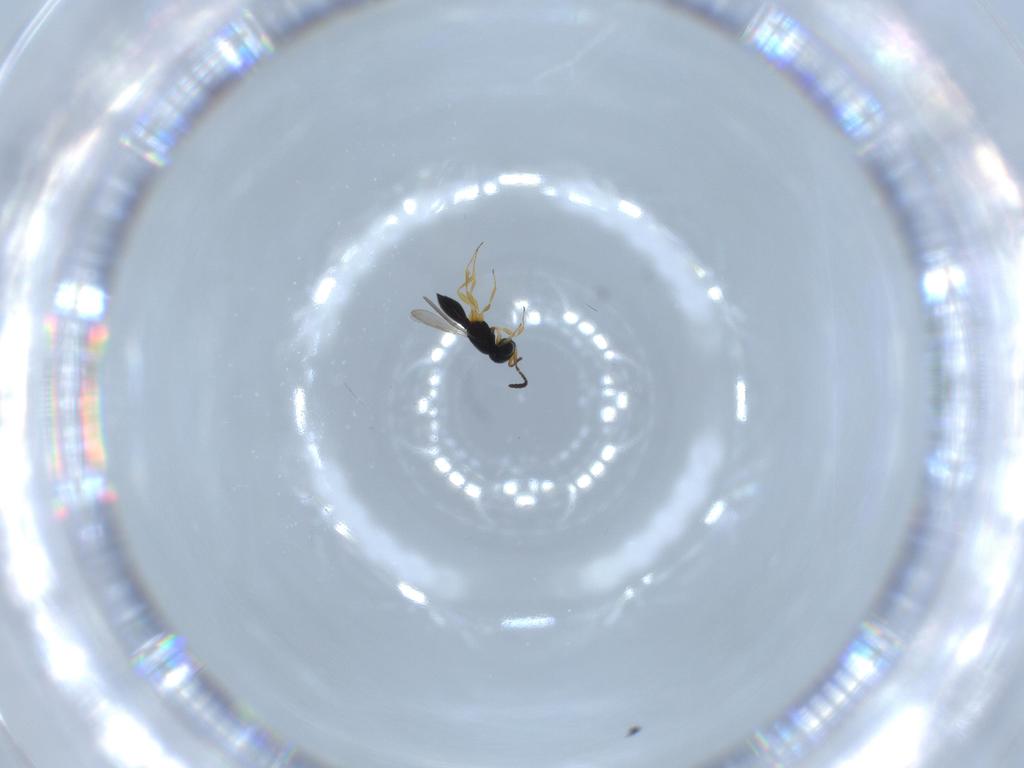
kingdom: Animalia
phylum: Arthropoda
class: Insecta
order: Hymenoptera
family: Scelionidae
